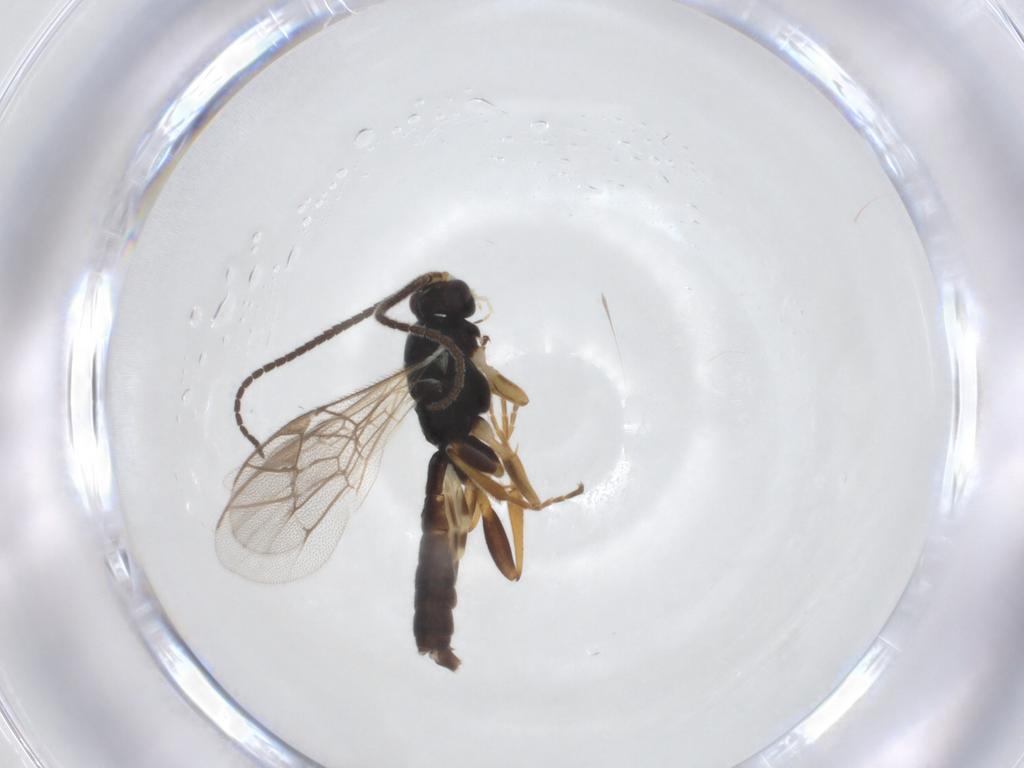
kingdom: Animalia
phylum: Arthropoda
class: Insecta
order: Hymenoptera
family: Ichneumonidae
